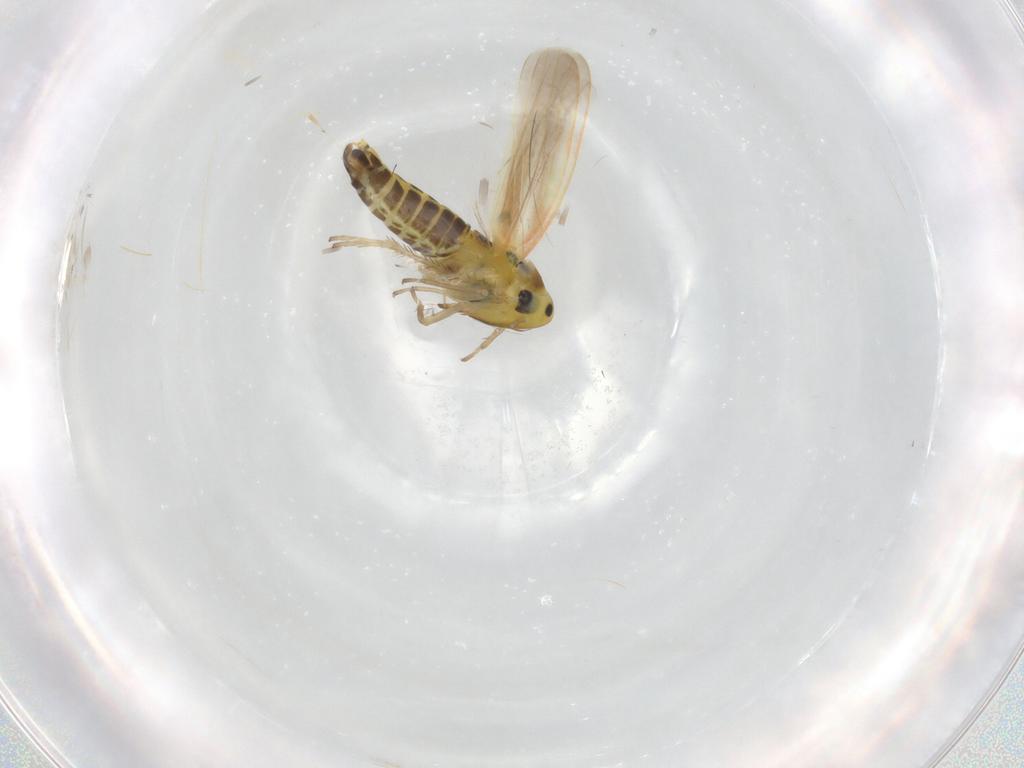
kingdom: Animalia
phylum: Arthropoda
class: Insecta
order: Hemiptera
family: Cicadellidae
